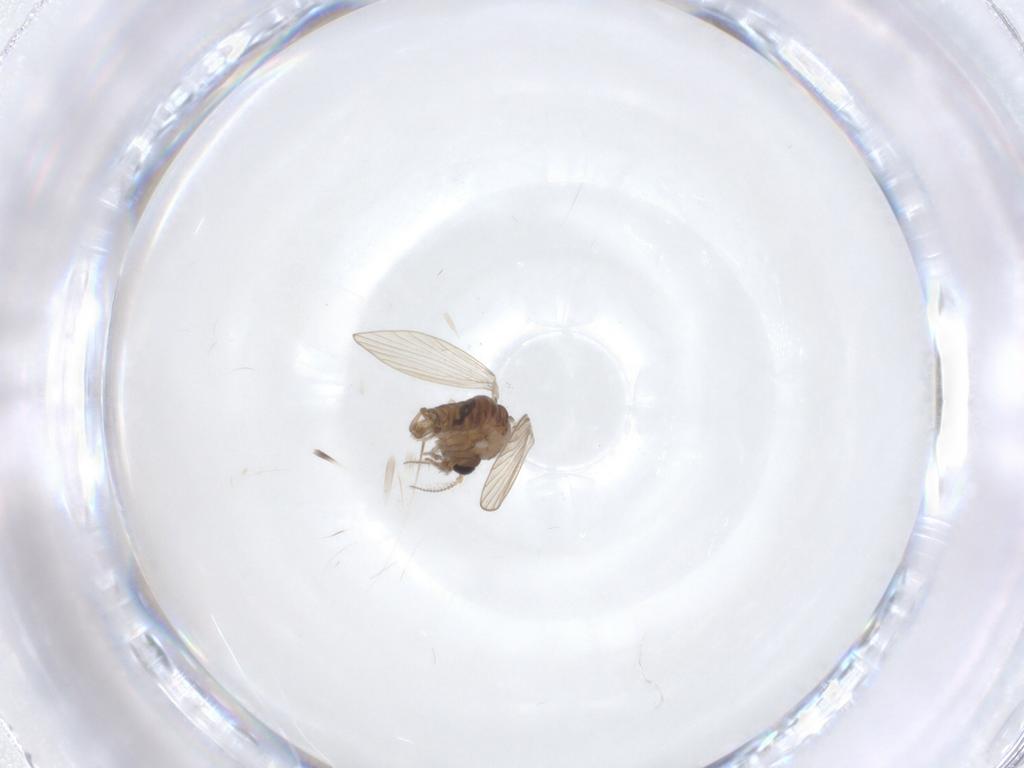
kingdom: Animalia
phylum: Arthropoda
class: Insecta
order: Diptera
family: Psychodidae
